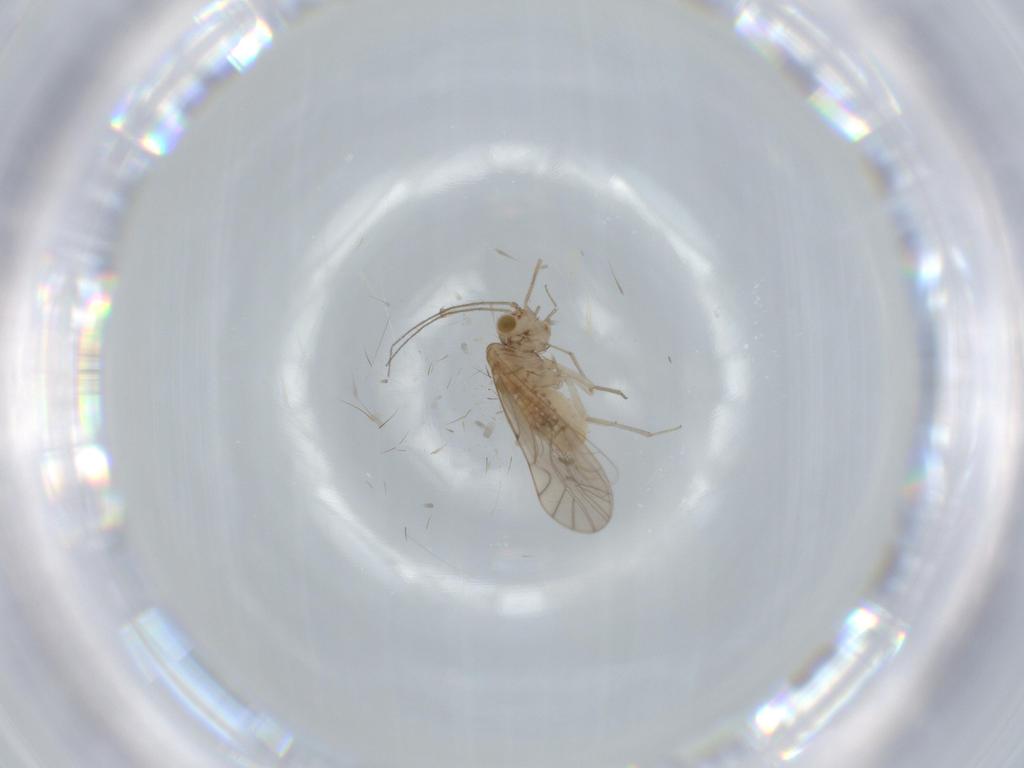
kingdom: Animalia
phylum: Arthropoda
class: Insecta
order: Psocodea
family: Lachesillidae
